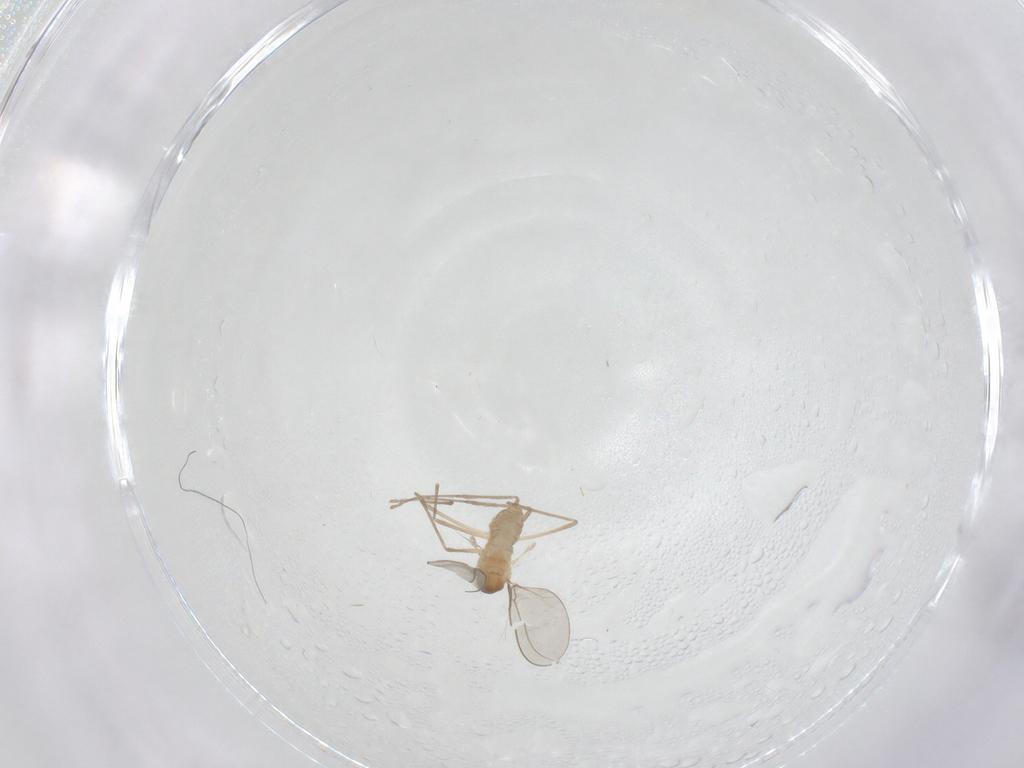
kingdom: Animalia
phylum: Arthropoda
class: Insecta
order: Diptera
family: Cecidomyiidae
